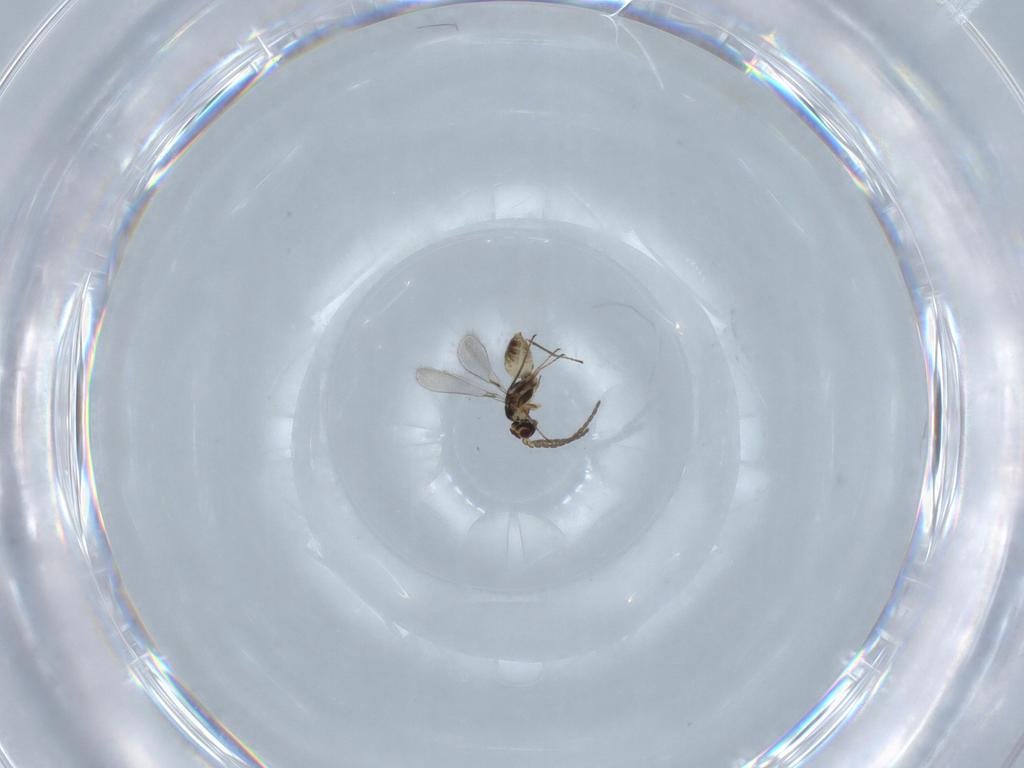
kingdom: Animalia
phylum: Arthropoda
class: Insecta
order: Hymenoptera
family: Mymaridae
